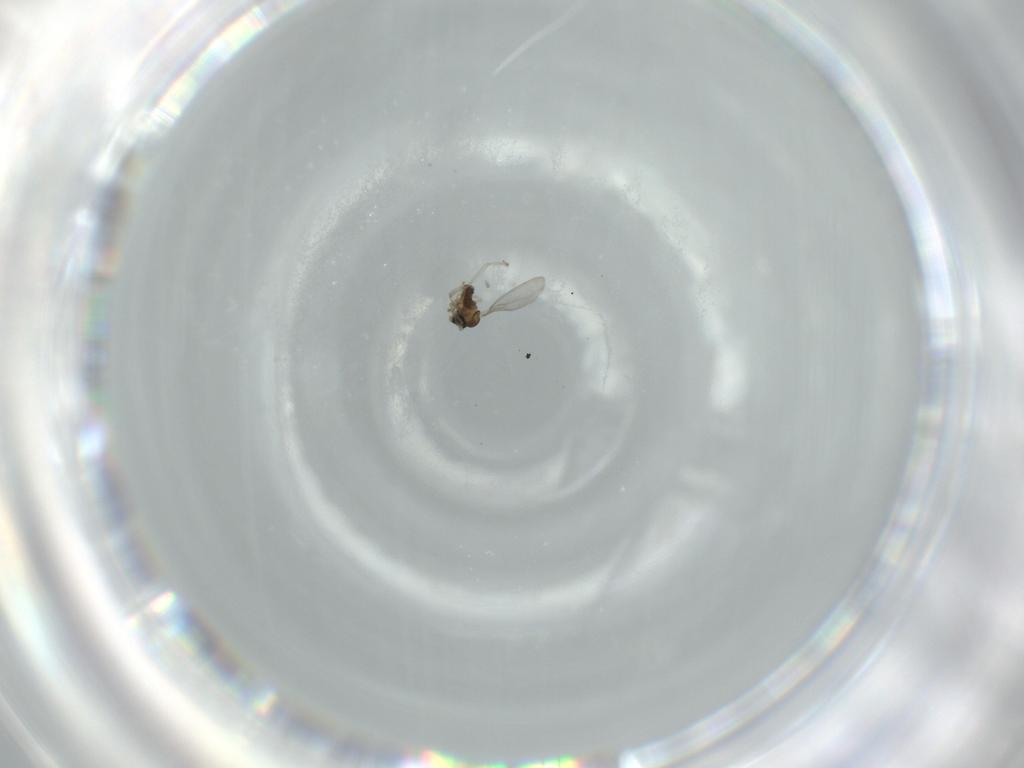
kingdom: Animalia
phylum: Arthropoda
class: Insecta
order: Diptera
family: Cecidomyiidae
